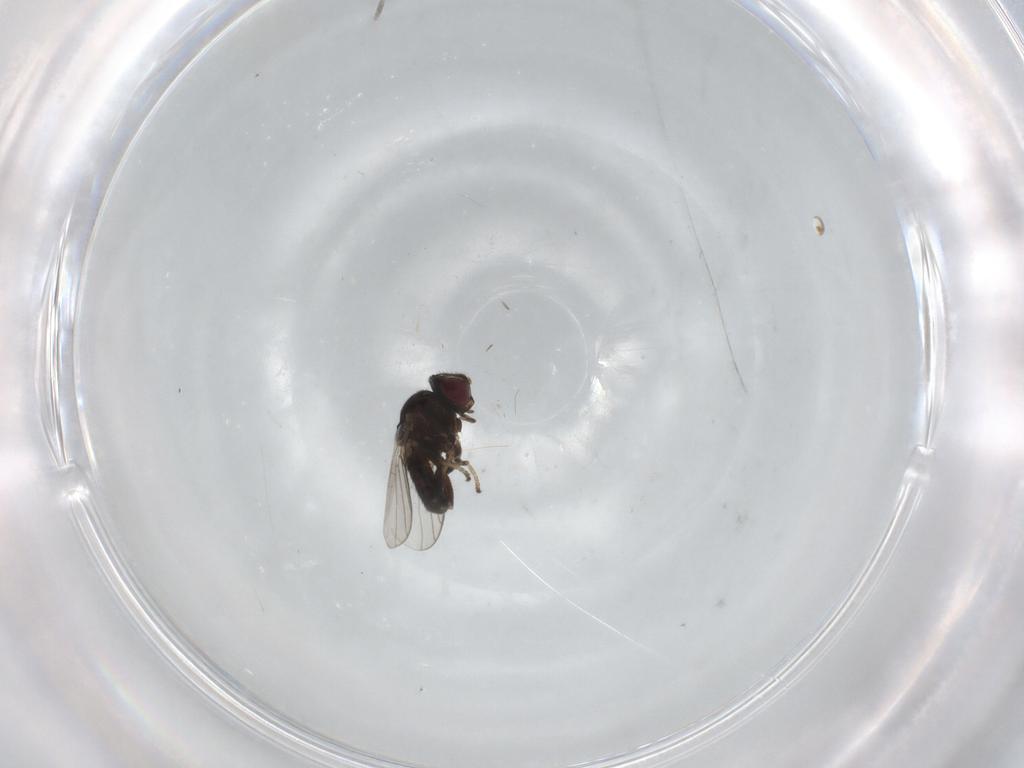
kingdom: Animalia
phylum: Arthropoda
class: Insecta
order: Diptera
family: Chloropidae
